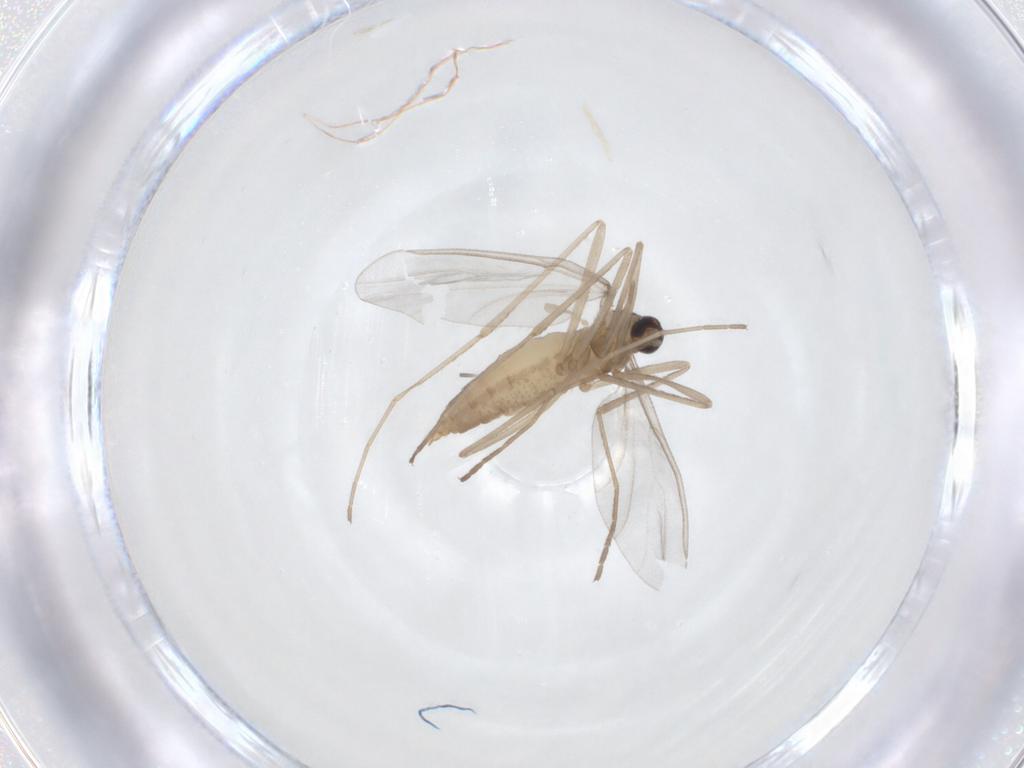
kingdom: Animalia
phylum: Arthropoda
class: Insecta
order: Diptera
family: Cecidomyiidae
